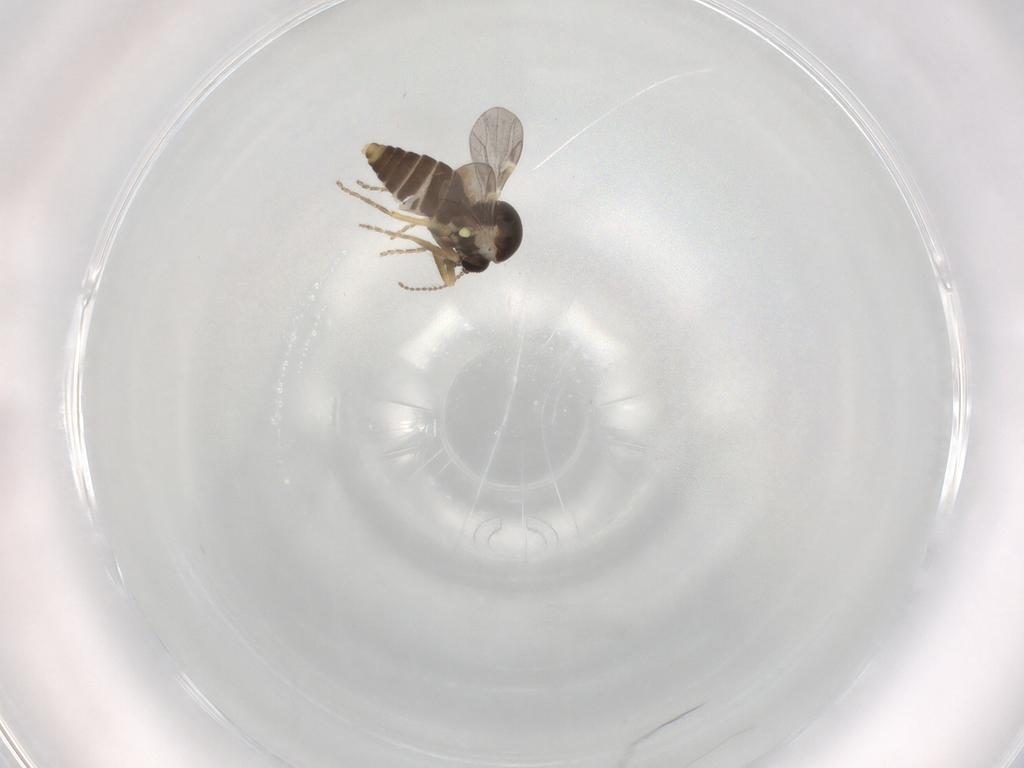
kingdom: Animalia
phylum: Arthropoda
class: Insecta
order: Diptera
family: Ceratopogonidae
